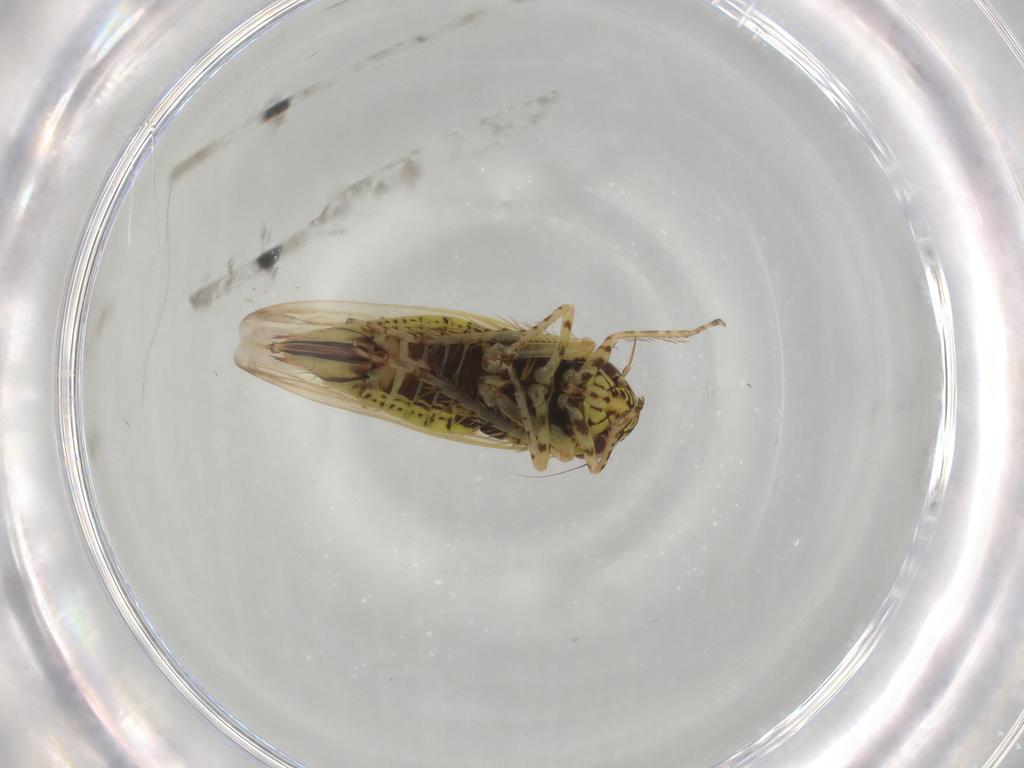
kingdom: Animalia
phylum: Arthropoda
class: Insecta
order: Hemiptera
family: Cicadellidae
